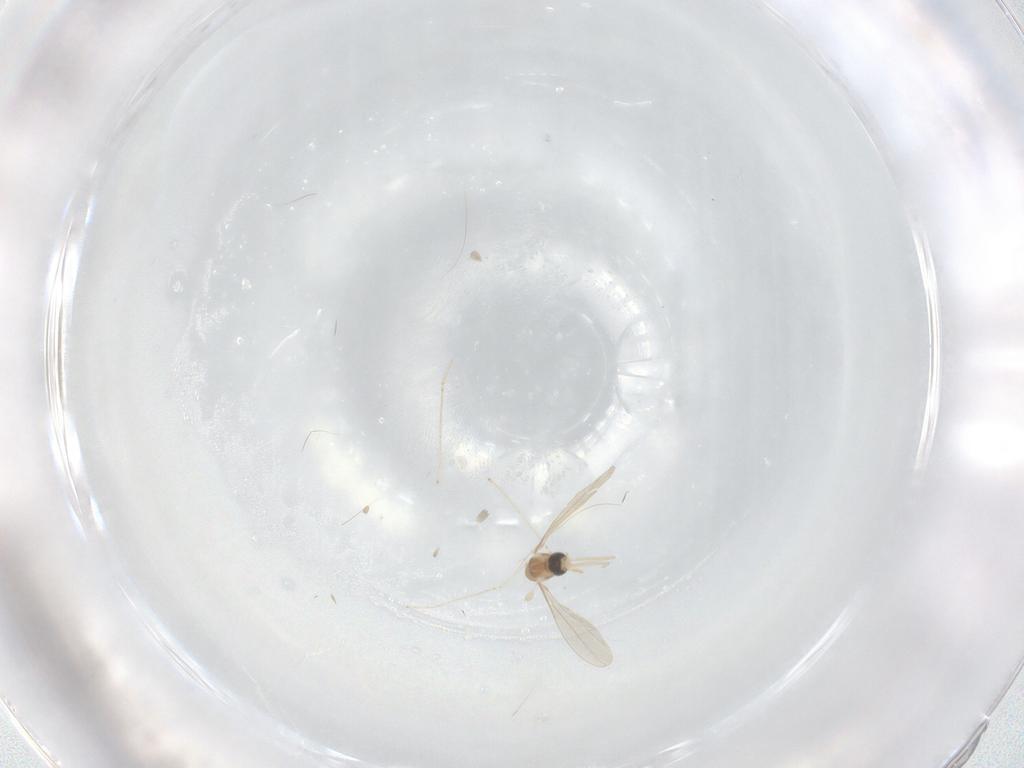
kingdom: Animalia
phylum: Arthropoda
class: Insecta
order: Diptera
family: Cecidomyiidae
